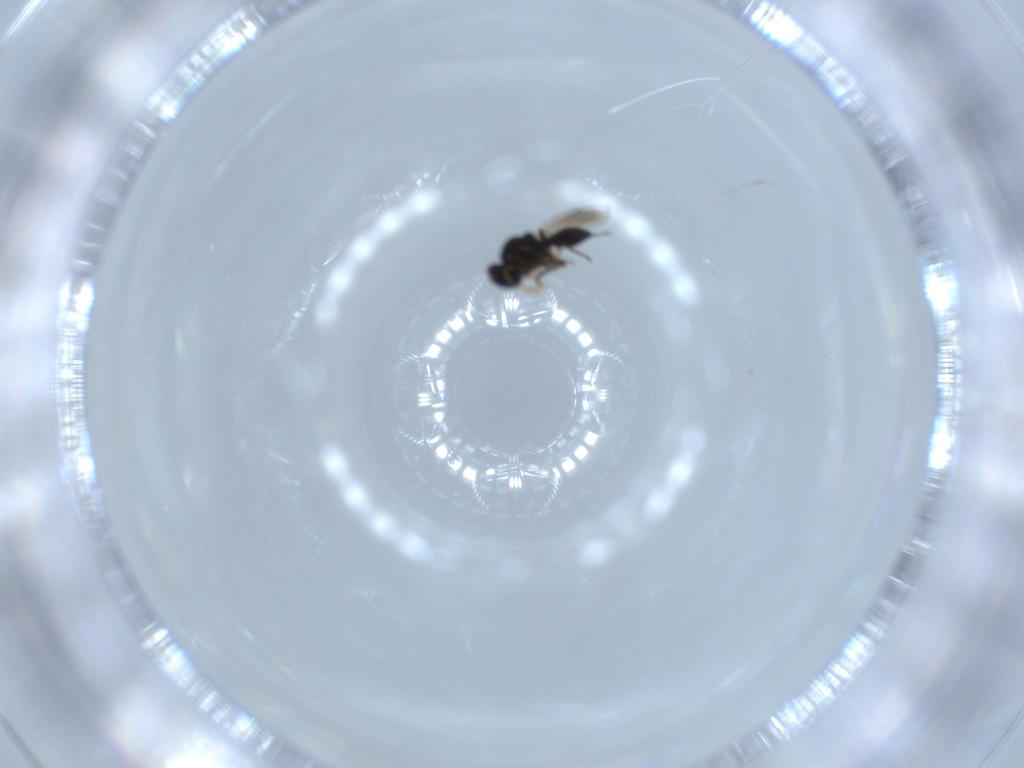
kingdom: Animalia
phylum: Arthropoda
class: Insecta
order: Hymenoptera
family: Platygastridae
